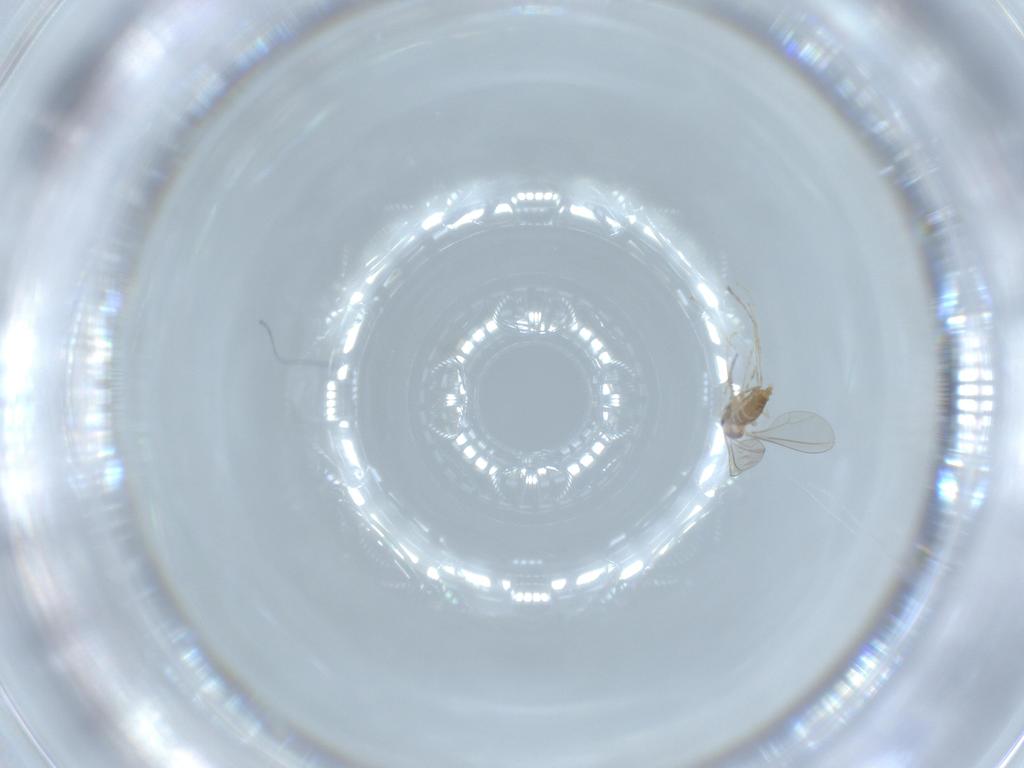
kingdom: Animalia
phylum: Arthropoda
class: Insecta
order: Diptera
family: Cecidomyiidae
